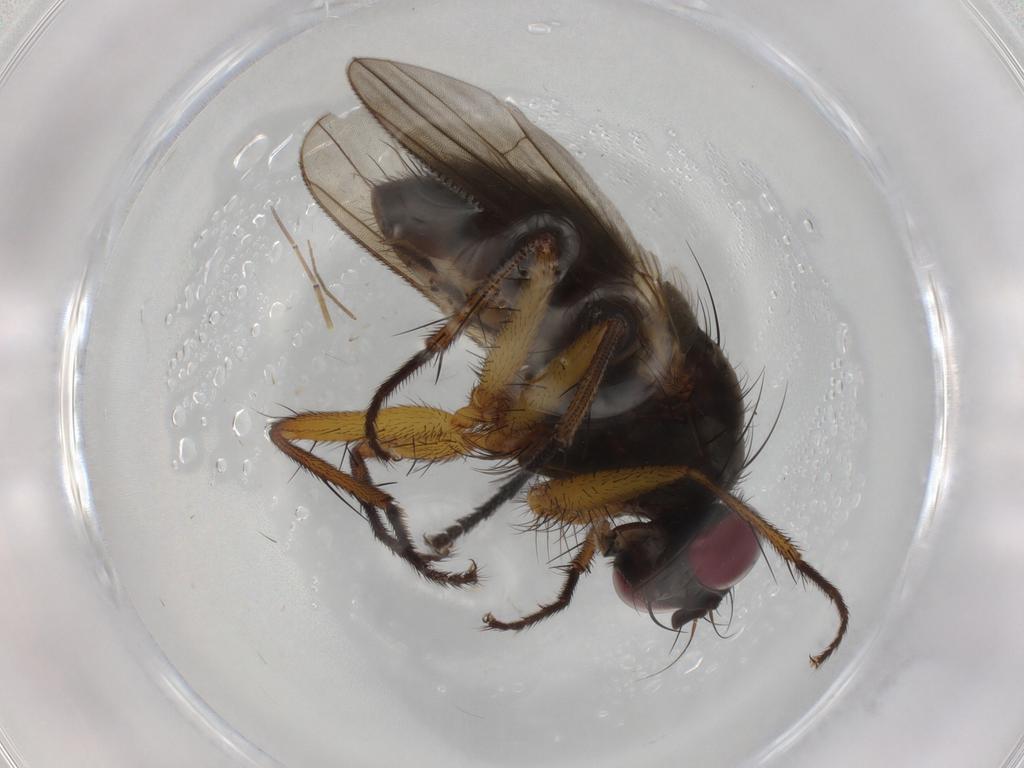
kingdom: Animalia
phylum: Arthropoda
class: Insecta
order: Diptera
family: Muscidae
